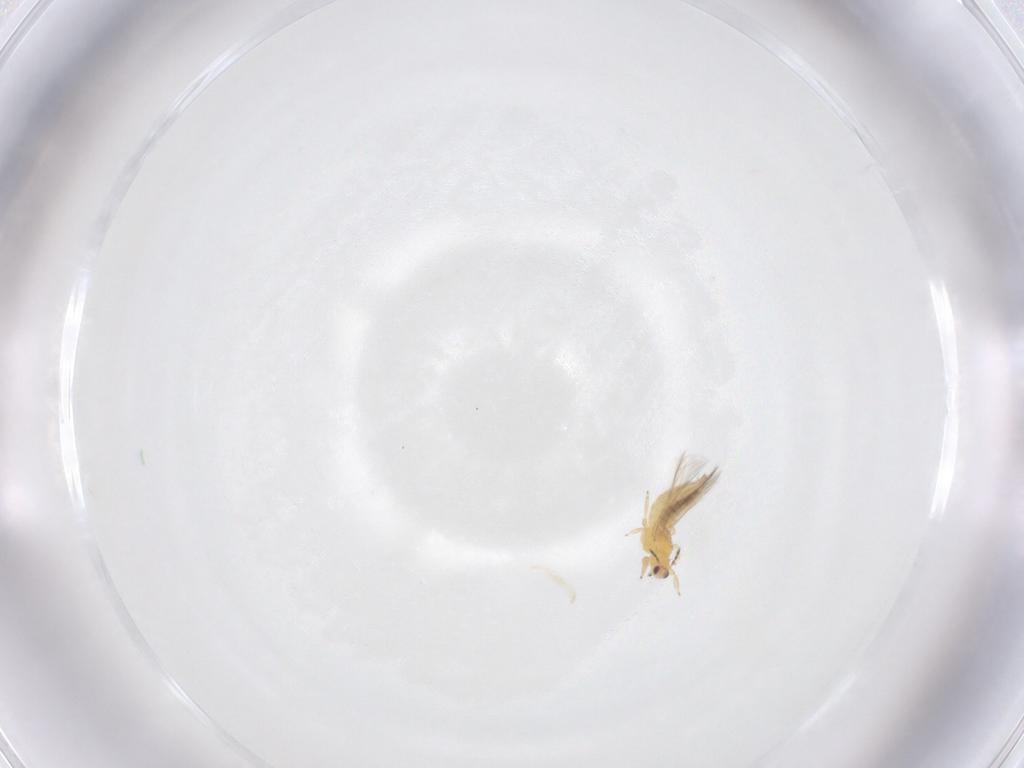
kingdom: Animalia
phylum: Arthropoda
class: Insecta
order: Thysanoptera
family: Thripidae
